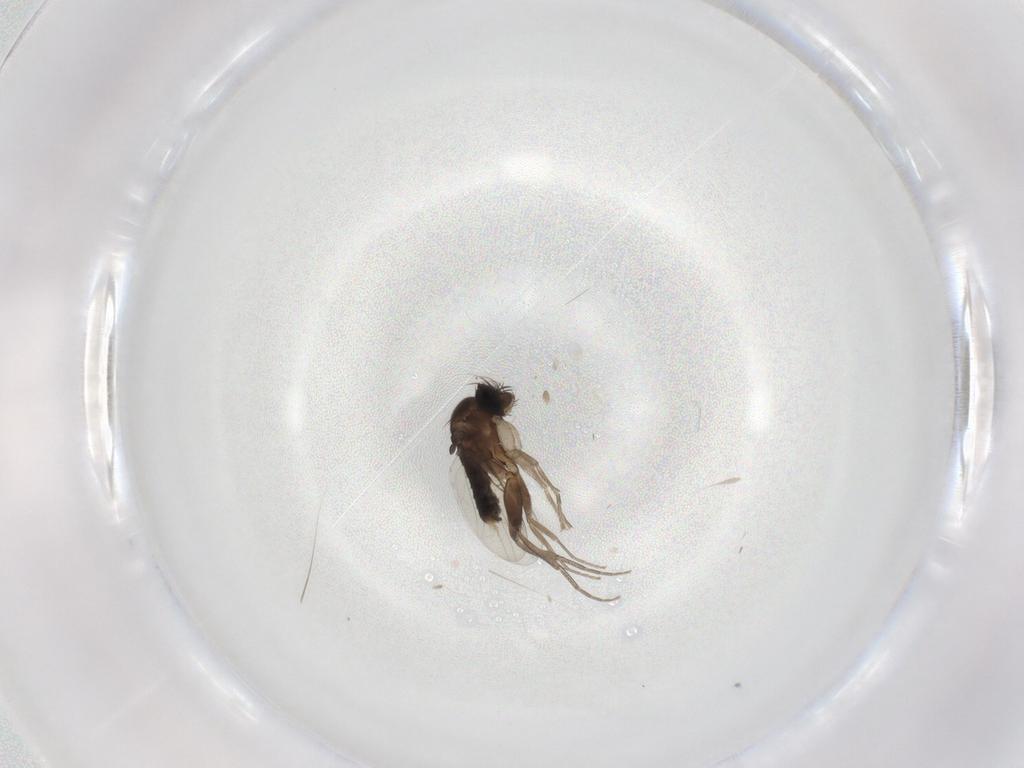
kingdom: Animalia
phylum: Arthropoda
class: Insecta
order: Diptera
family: Phoridae
